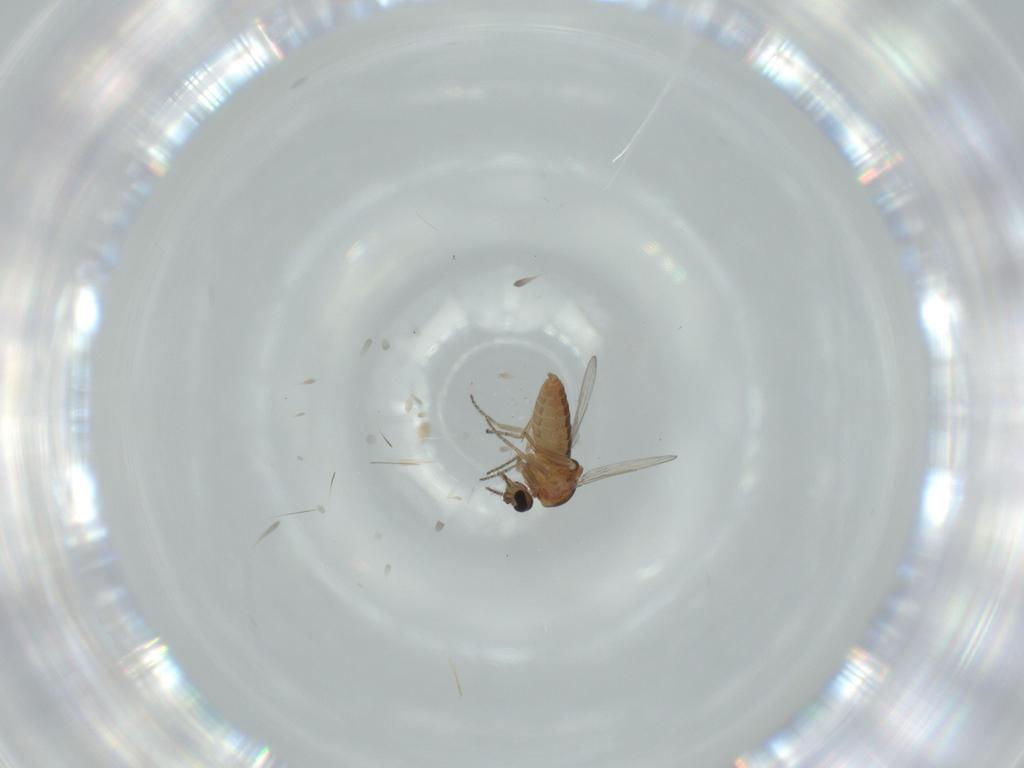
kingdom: Animalia
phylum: Arthropoda
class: Insecta
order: Diptera
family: Ceratopogonidae
